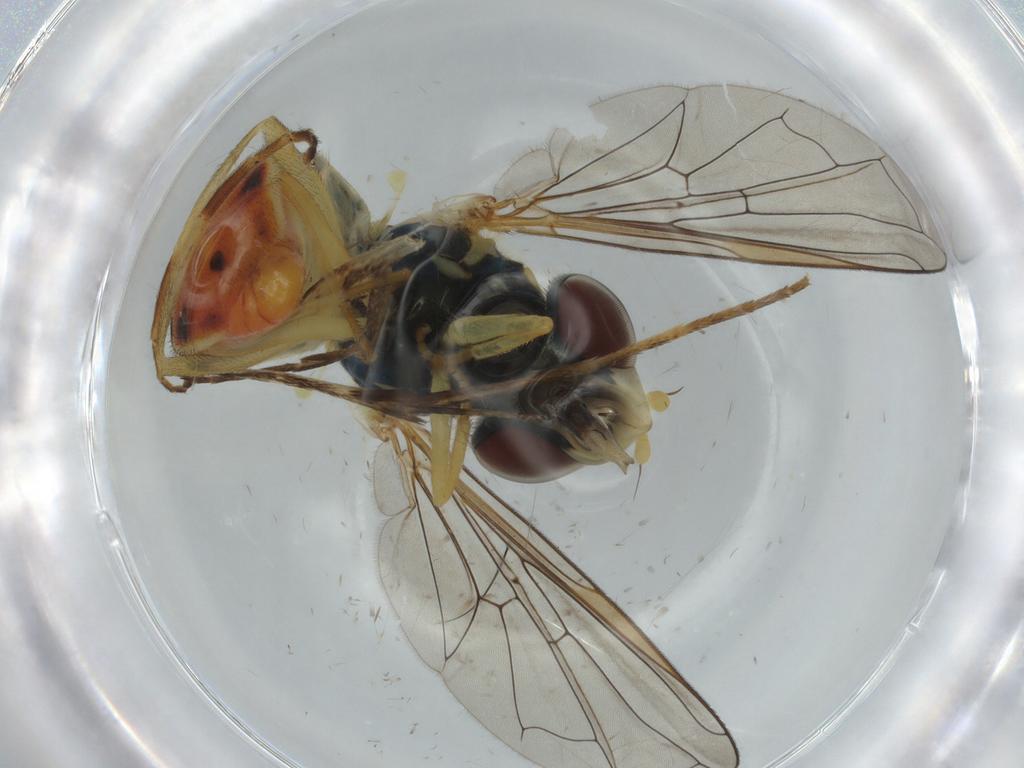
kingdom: Animalia
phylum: Arthropoda
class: Insecta
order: Diptera
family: Syrphidae
